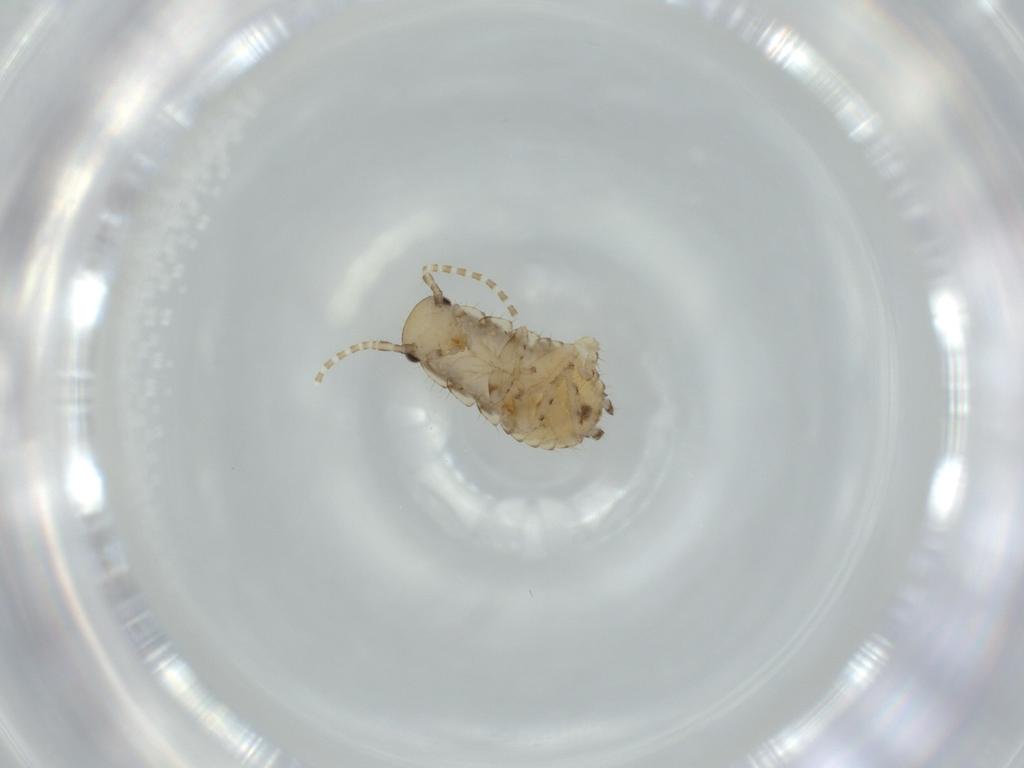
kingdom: Animalia
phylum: Arthropoda
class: Insecta
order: Blattodea
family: Ectobiidae
